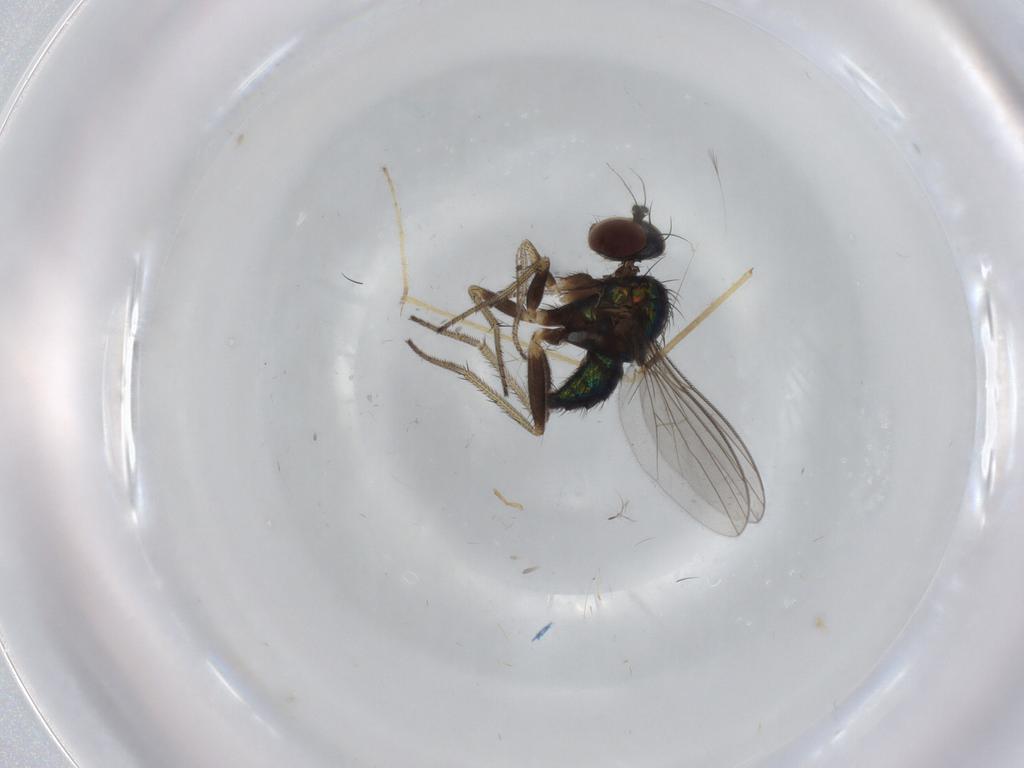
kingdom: Animalia
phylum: Arthropoda
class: Insecta
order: Diptera
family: Limoniidae
